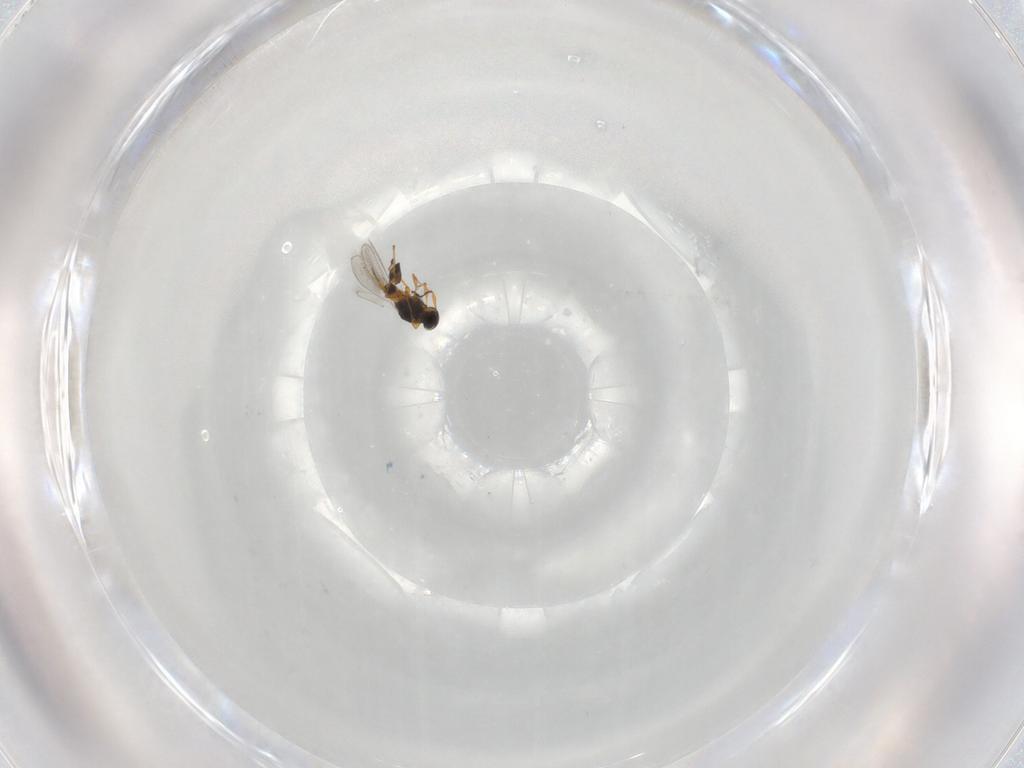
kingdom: Animalia
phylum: Arthropoda
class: Insecta
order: Hymenoptera
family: Platygastridae
